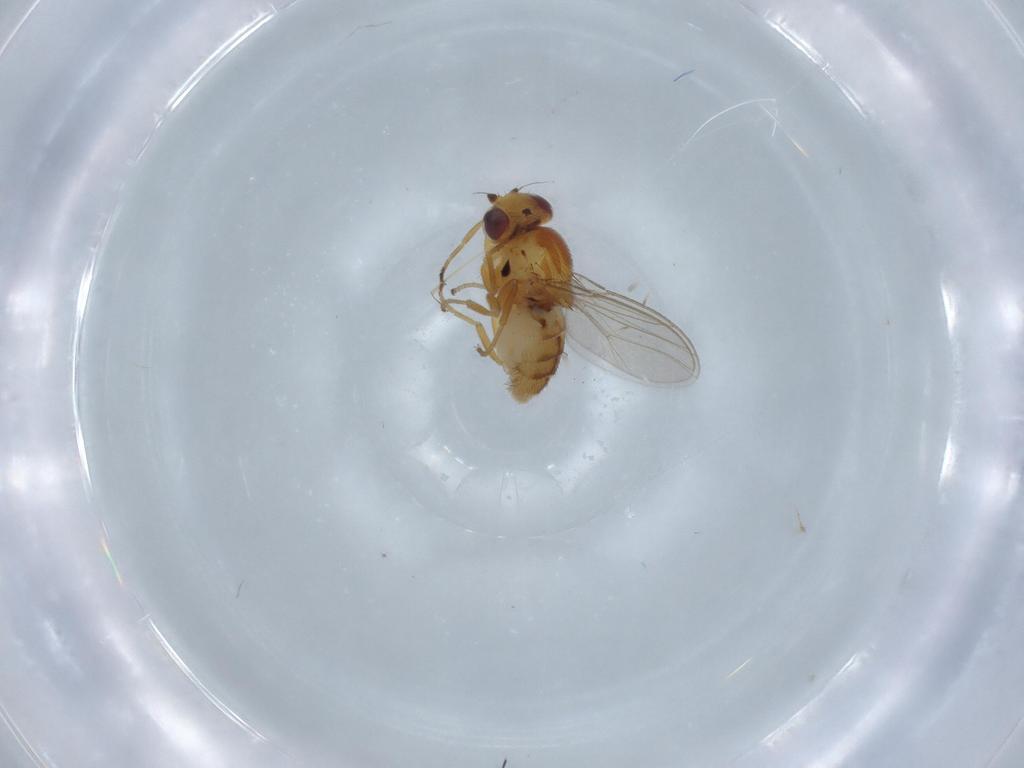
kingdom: Animalia
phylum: Arthropoda
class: Insecta
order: Diptera
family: Chloropidae
